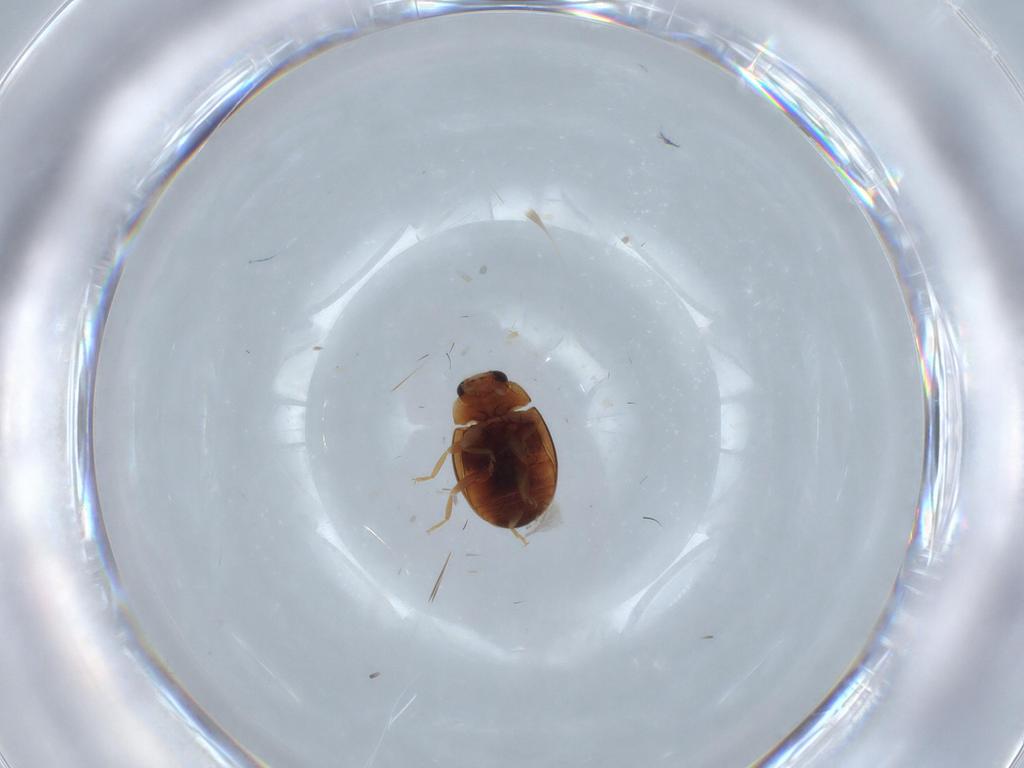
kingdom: Animalia
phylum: Arthropoda
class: Insecta
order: Coleoptera
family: Coccinellidae
